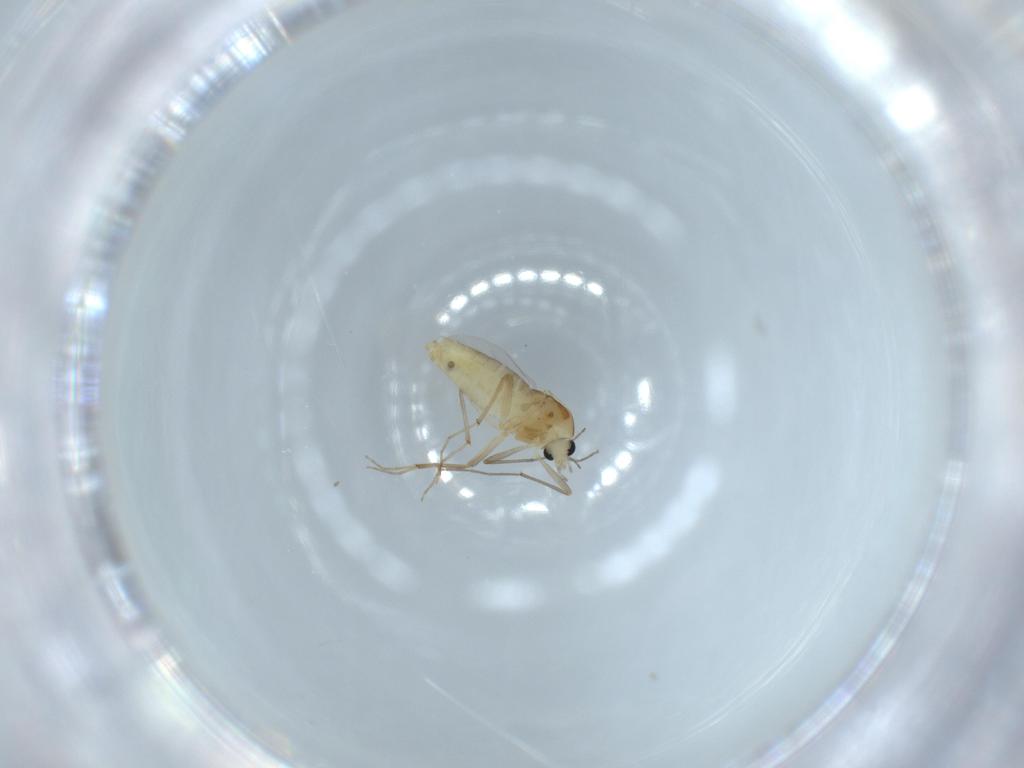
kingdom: Animalia
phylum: Arthropoda
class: Insecta
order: Diptera
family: Chironomidae
